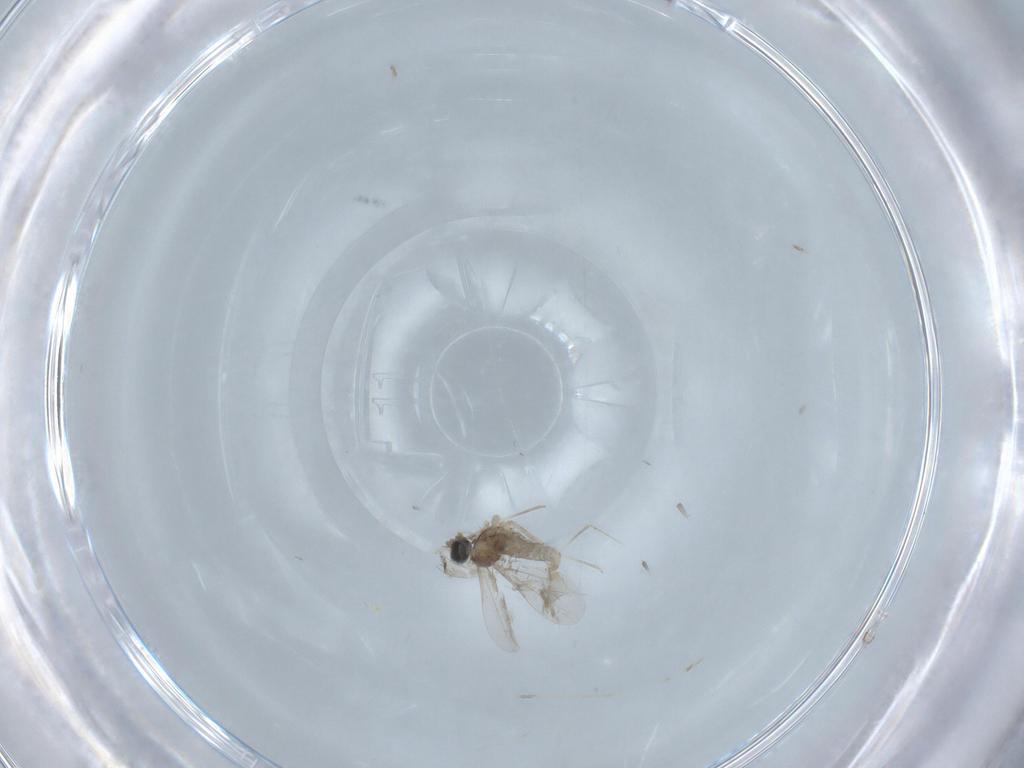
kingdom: Animalia
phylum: Arthropoda
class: Insecta
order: Diptera
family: Cecidomyiidae
